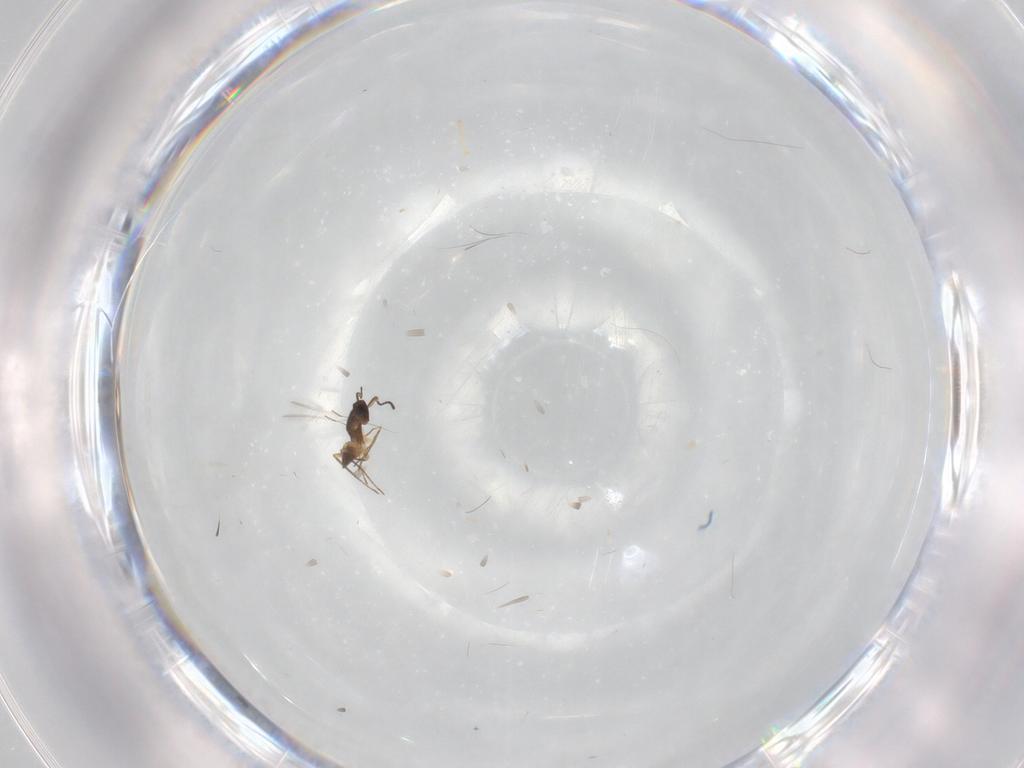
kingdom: Animalia
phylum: Arthropoda
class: Insecta
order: Hymenoptera
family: Mymaridae
